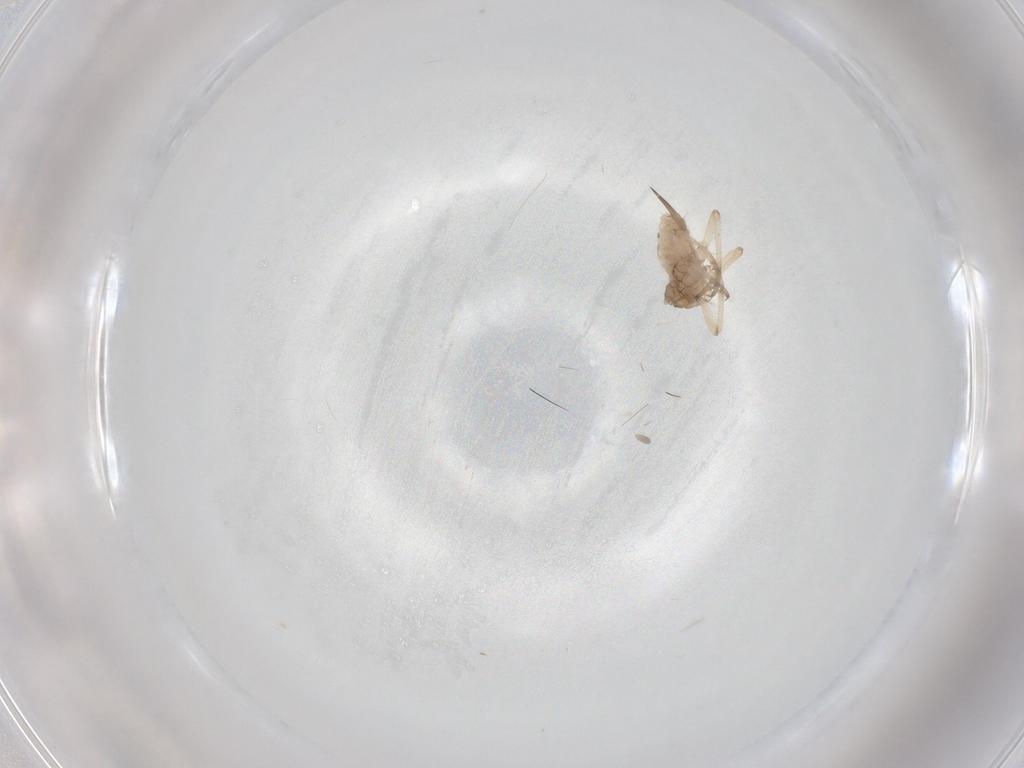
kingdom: Animalia
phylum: Arthropoda
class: Insecta
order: Hemiptera
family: Aphididae
